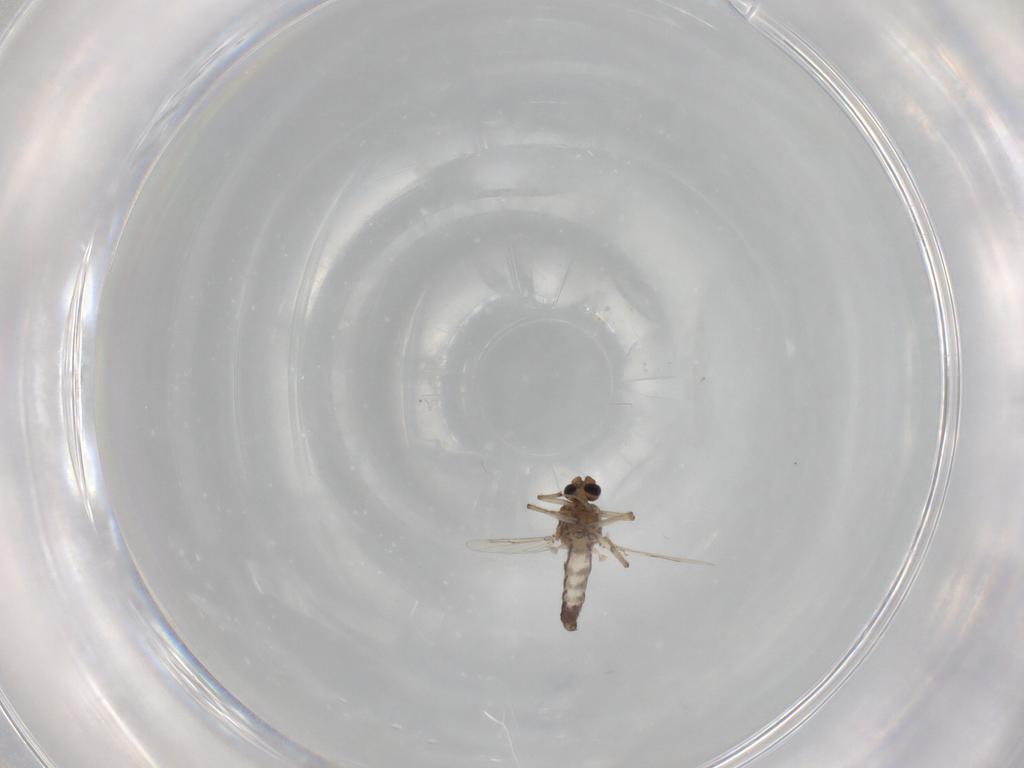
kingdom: Animalia
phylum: Arthropoda
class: Insecta
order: Diptera
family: Ceratopogonidae
